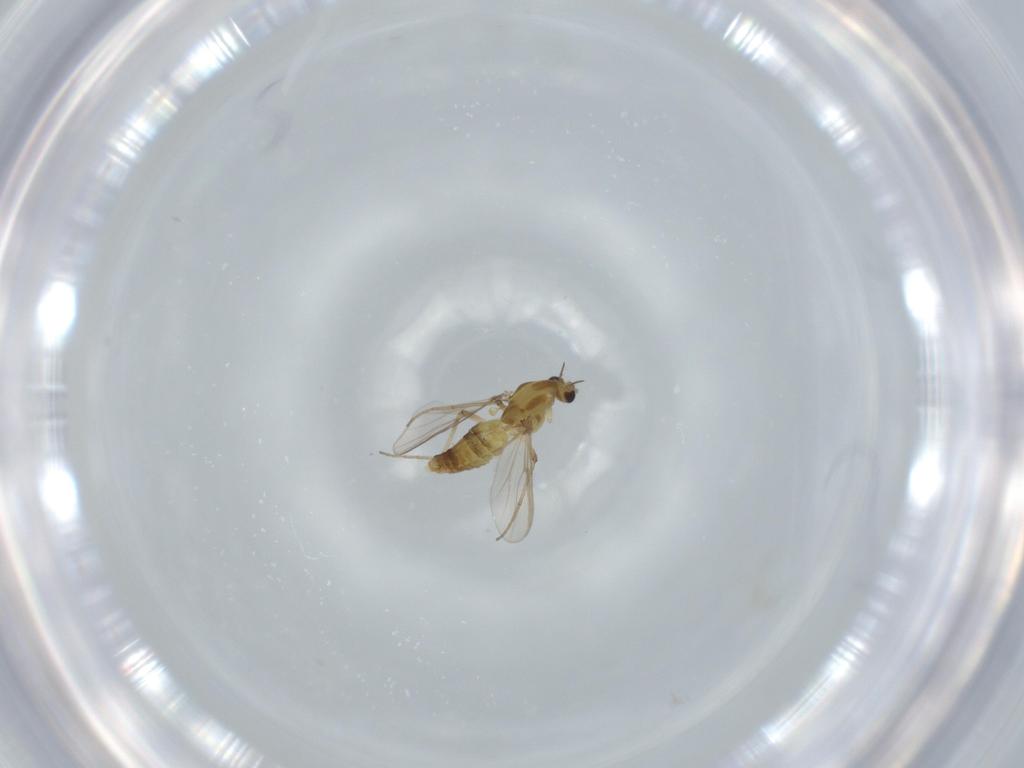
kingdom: Animalia
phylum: Arthropoda
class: Insecta
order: Diptera
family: Chironomidae
